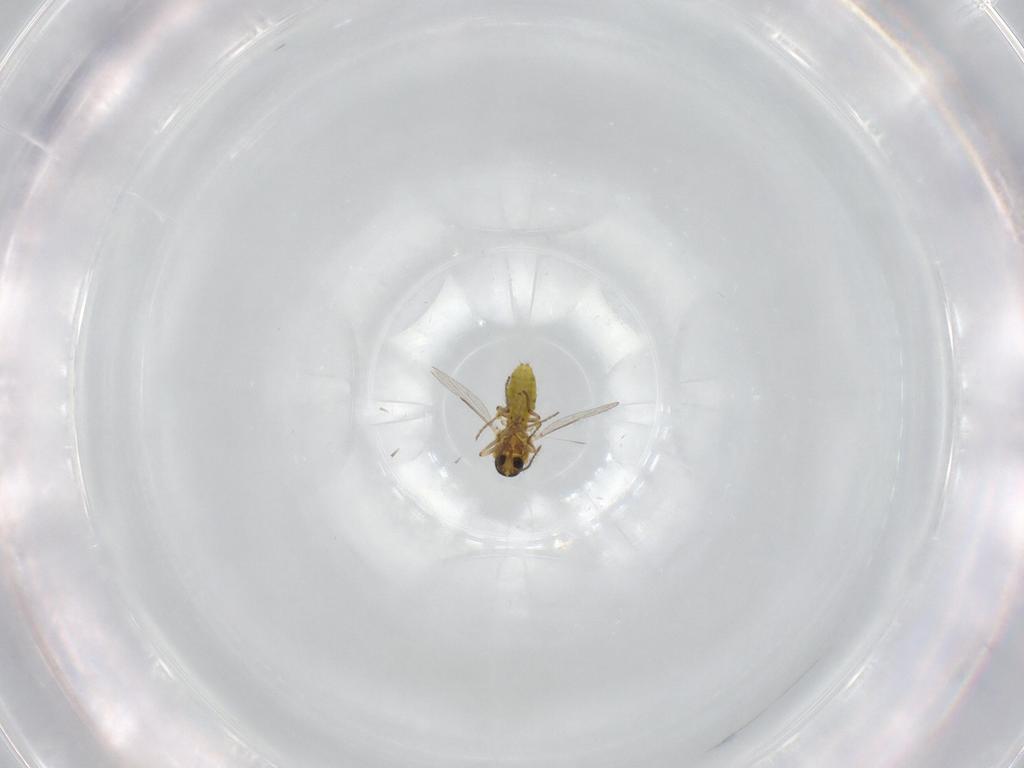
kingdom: Animalia
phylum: Arthropoda
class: Insecta
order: Diptera
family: Ceratopogonidae
